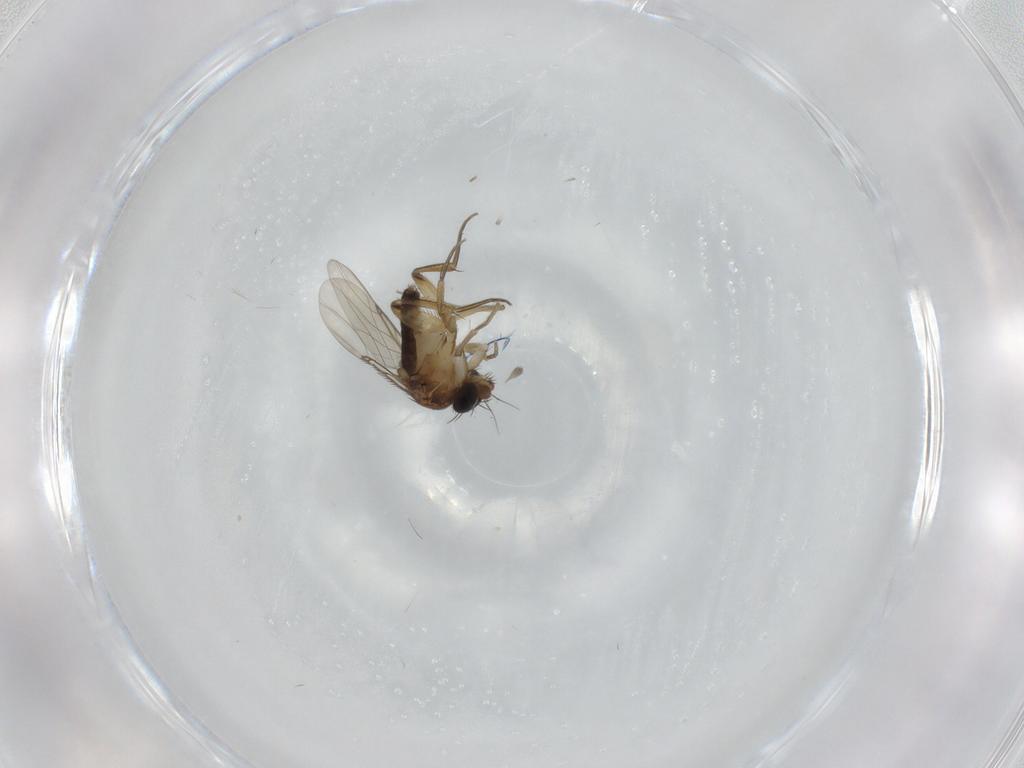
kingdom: Animalia
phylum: Arthropoda
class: Insecta
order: Diptera
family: Phoridae
